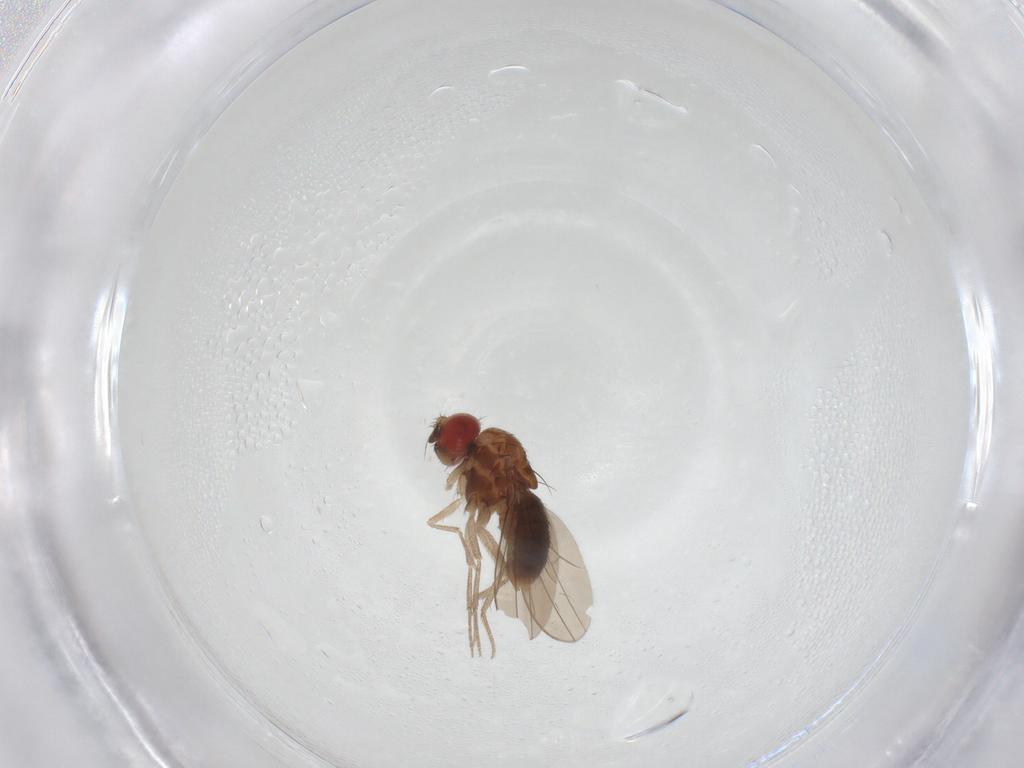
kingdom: Animalia
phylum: Arthropoda
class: Insecta
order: Diptera
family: Drosophilidae
